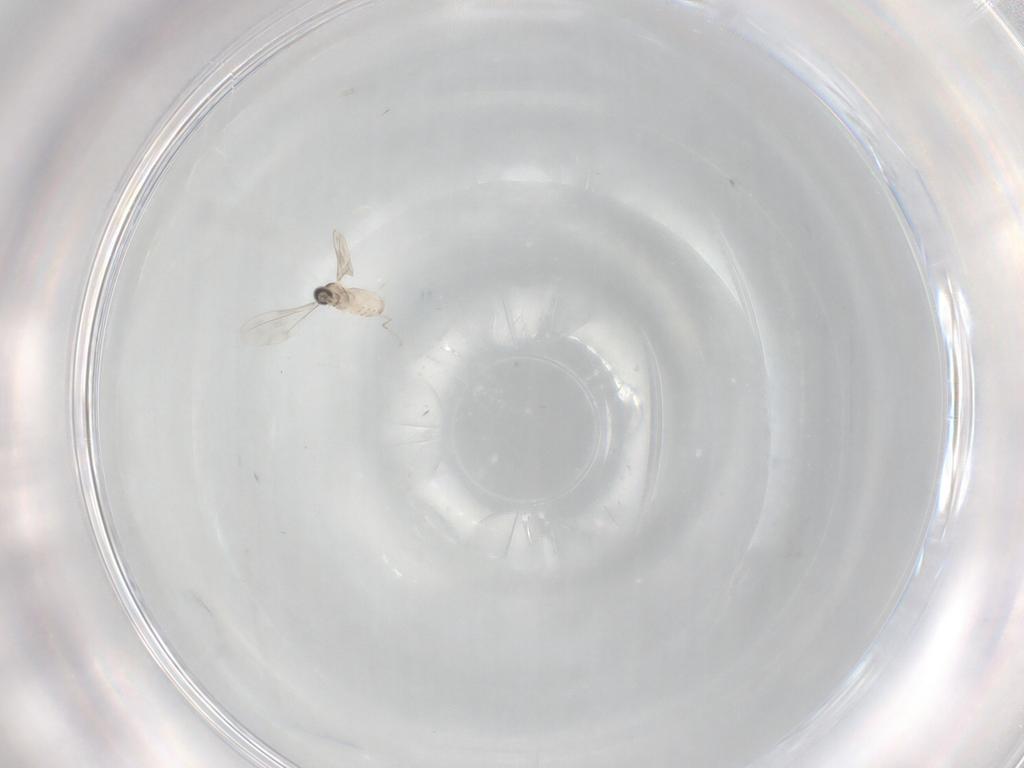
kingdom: Animalia
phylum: Arthropoda
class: Insecta
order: Diptera
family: Cecidomyiidae
